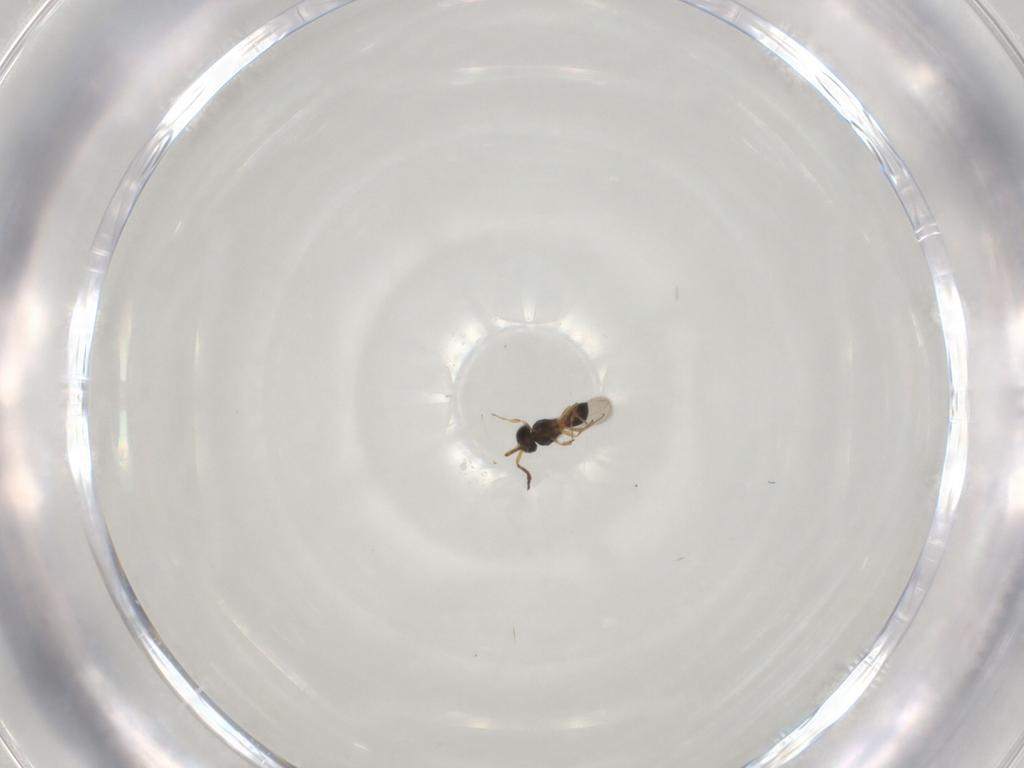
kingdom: Animalia
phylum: Arthropoda
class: Insecta
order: Hymenoptera
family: Scelionidae
